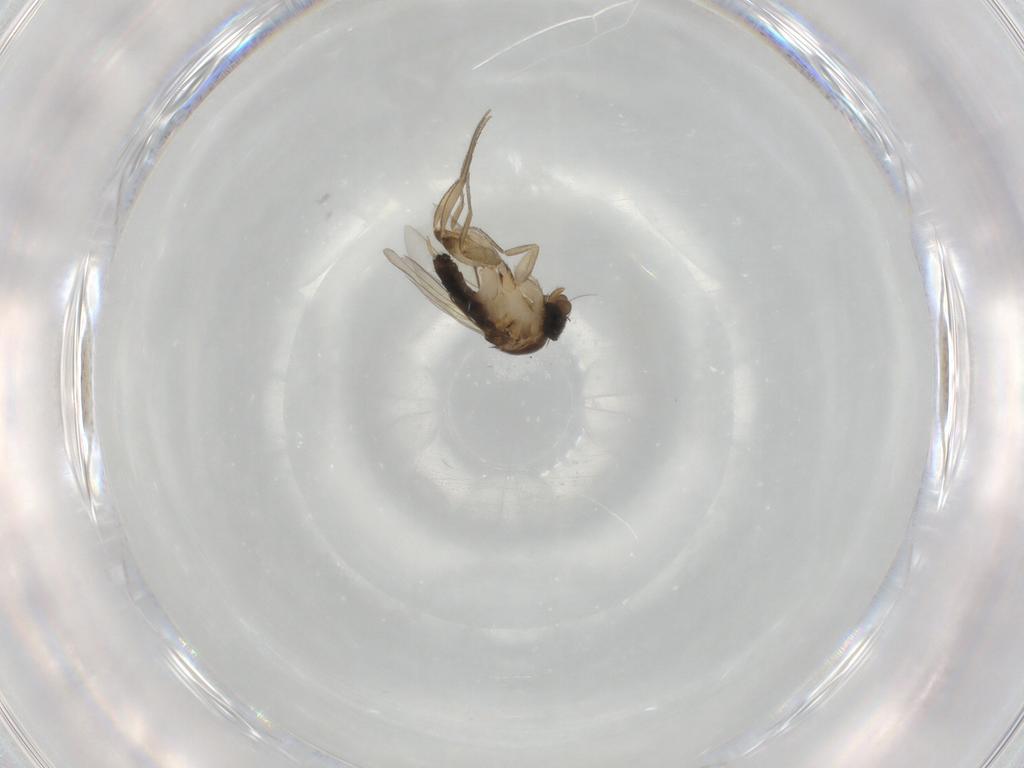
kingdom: Animalia
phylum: Arthropoda
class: Insecta
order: Diptera
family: Phoridae
